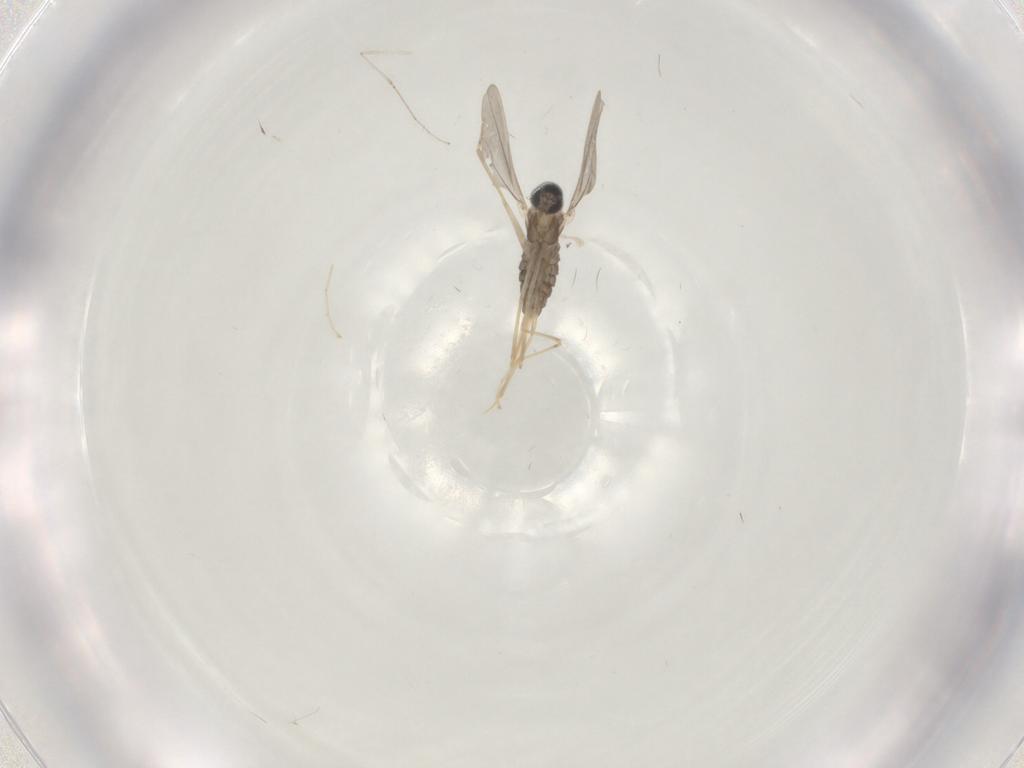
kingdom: Animalia
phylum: Arthropoda
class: Insecta
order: Diptera
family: Cecidomyiidae
